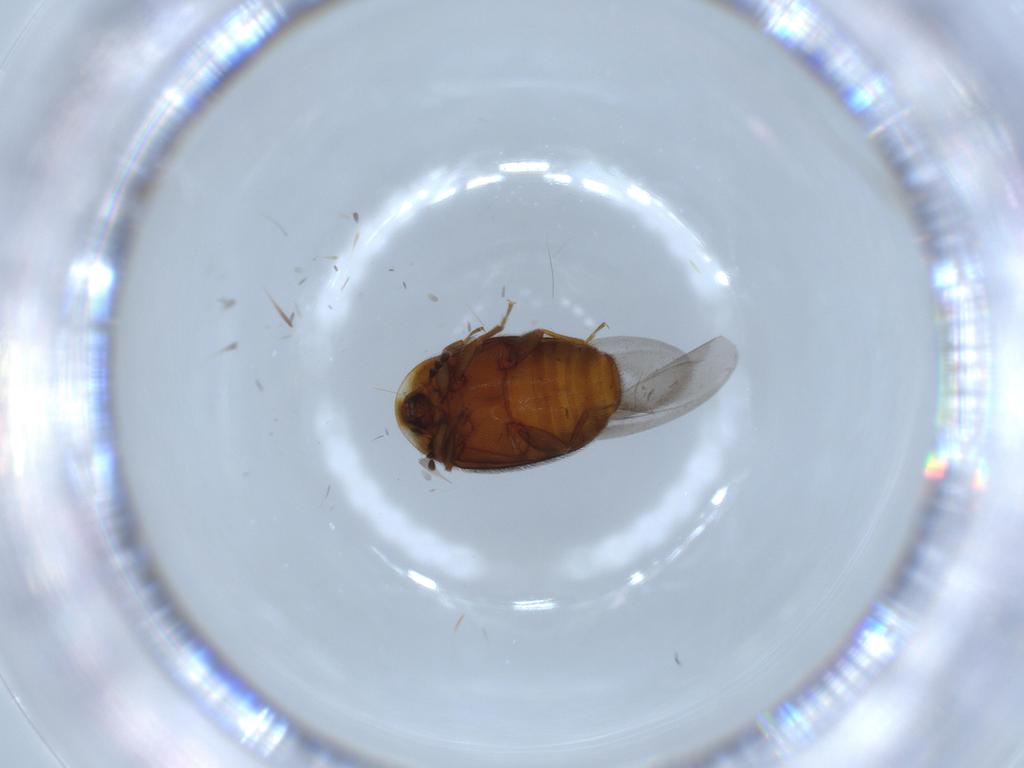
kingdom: Animalia
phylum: Arthropoda
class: Insecta
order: Coleoptera
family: Corylophidae
